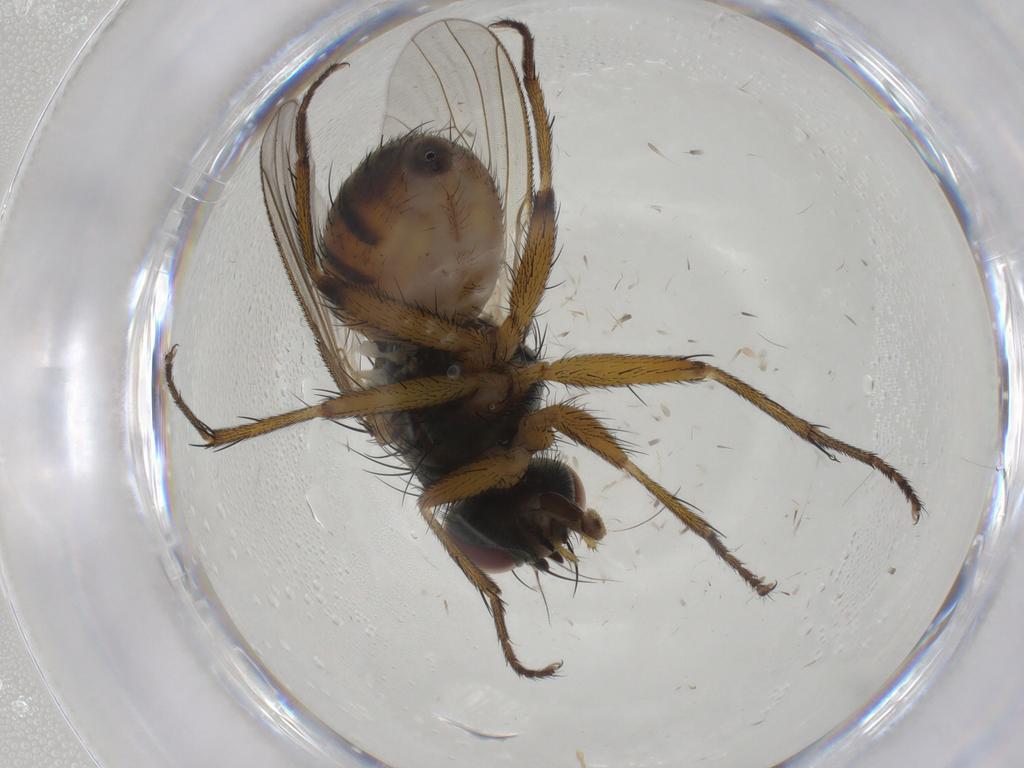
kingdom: Animalia
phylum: Arthropoda
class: Insecta
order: Diptera
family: Muscidae
